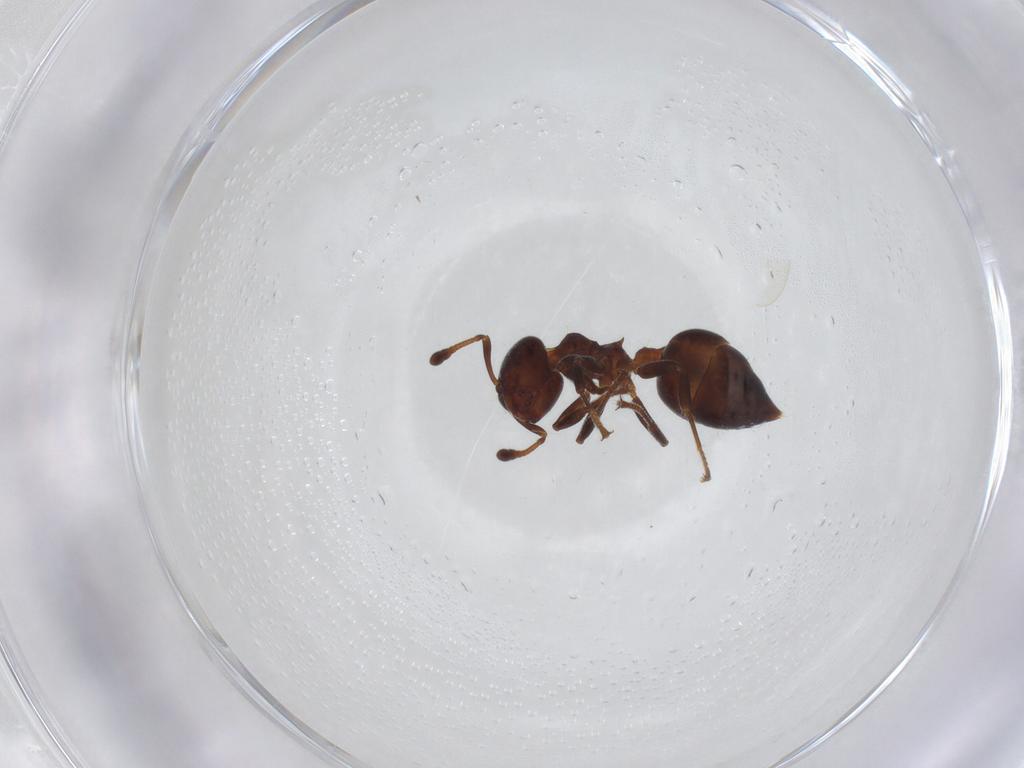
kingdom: Animalia
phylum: Arthropoda
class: Insecta
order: Hymenoptera
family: Formicidae
